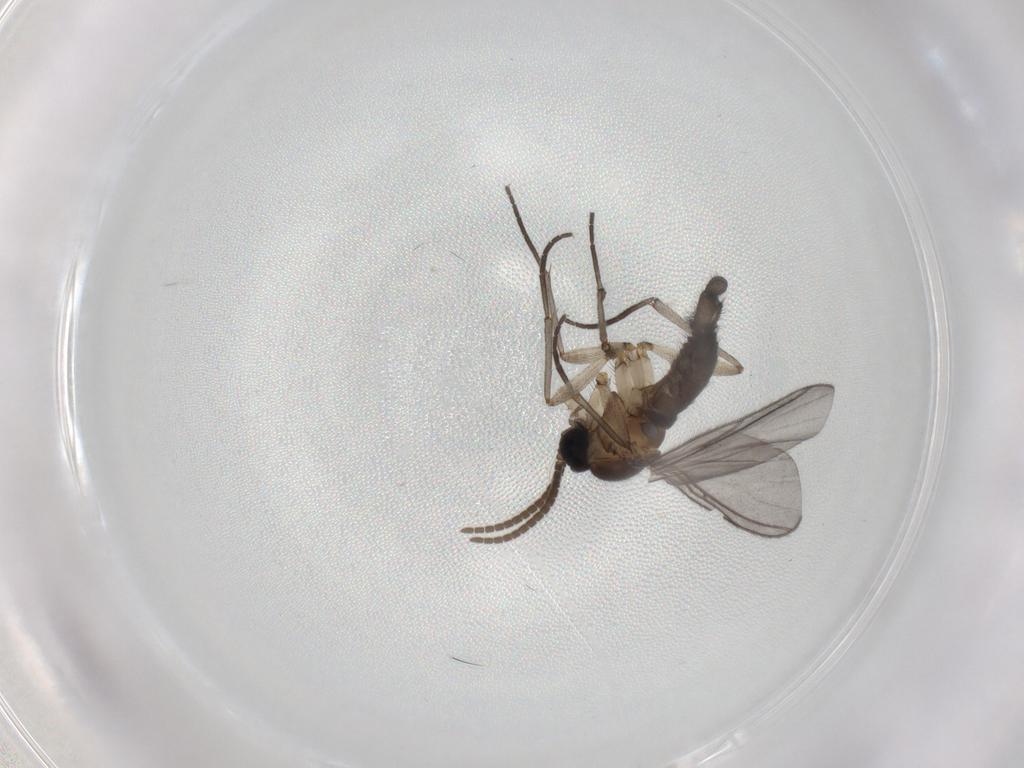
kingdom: Animalia
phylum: Arthropoda
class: Insecta
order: Diptera
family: Sciaridae
